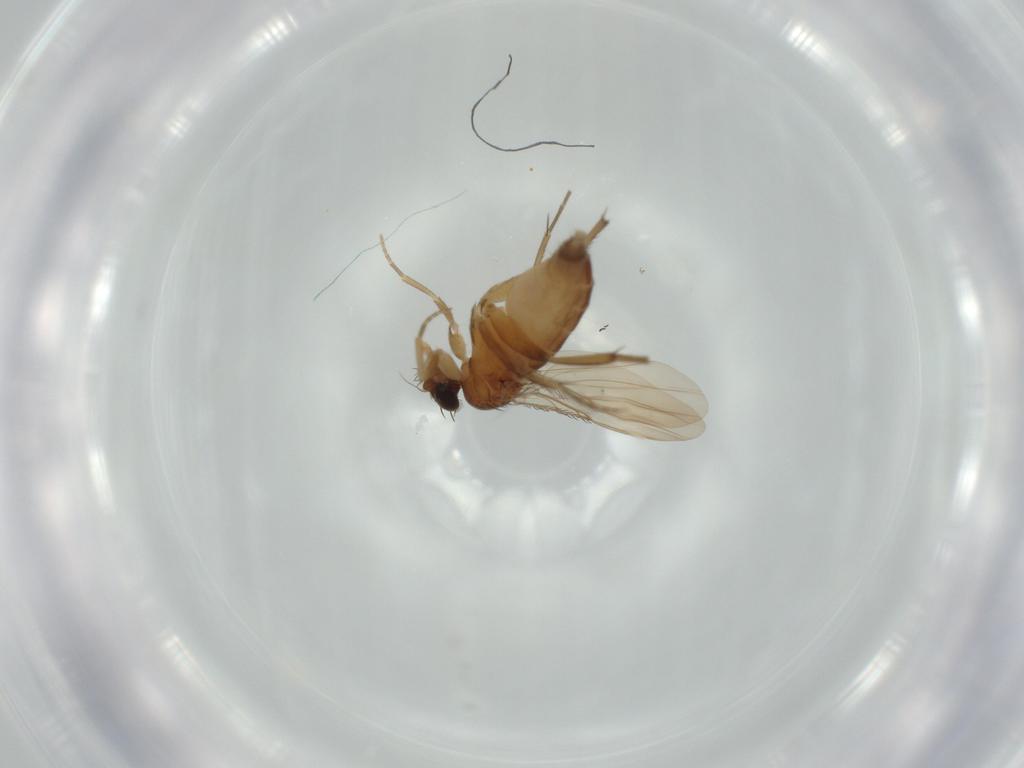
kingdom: Animalia
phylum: Arthropoda
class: Insecta
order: Diptera
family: Phoridae
